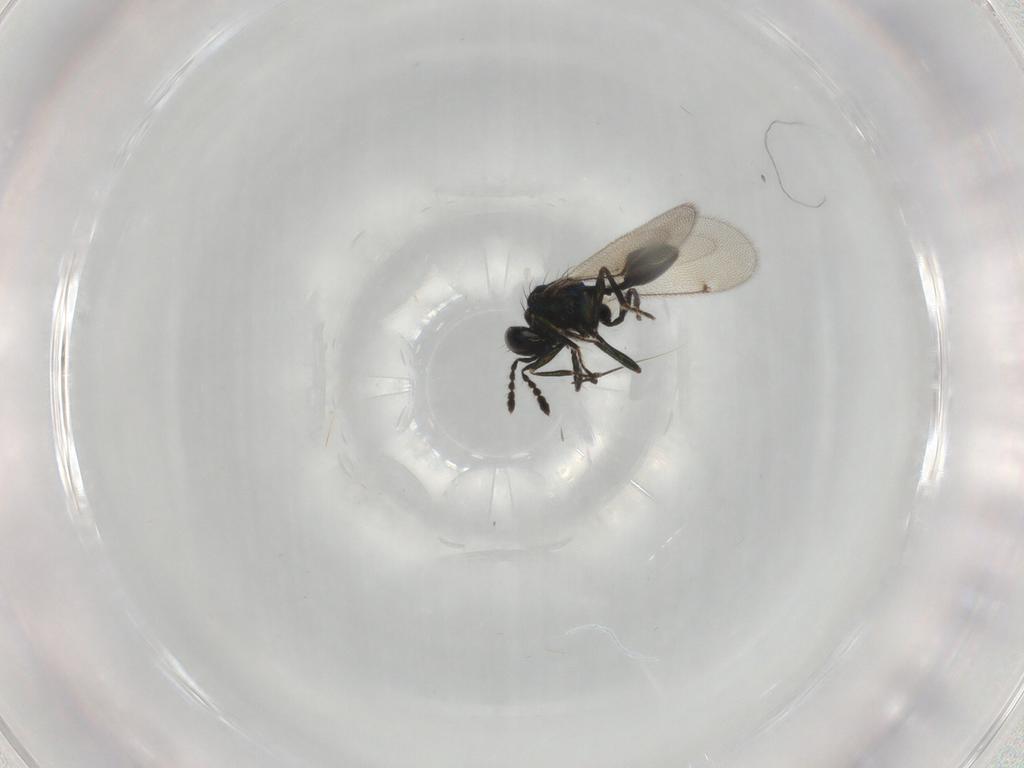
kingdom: Animalia
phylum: Arthropoda
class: Insecta
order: Hymenoptera
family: Eulophidae
